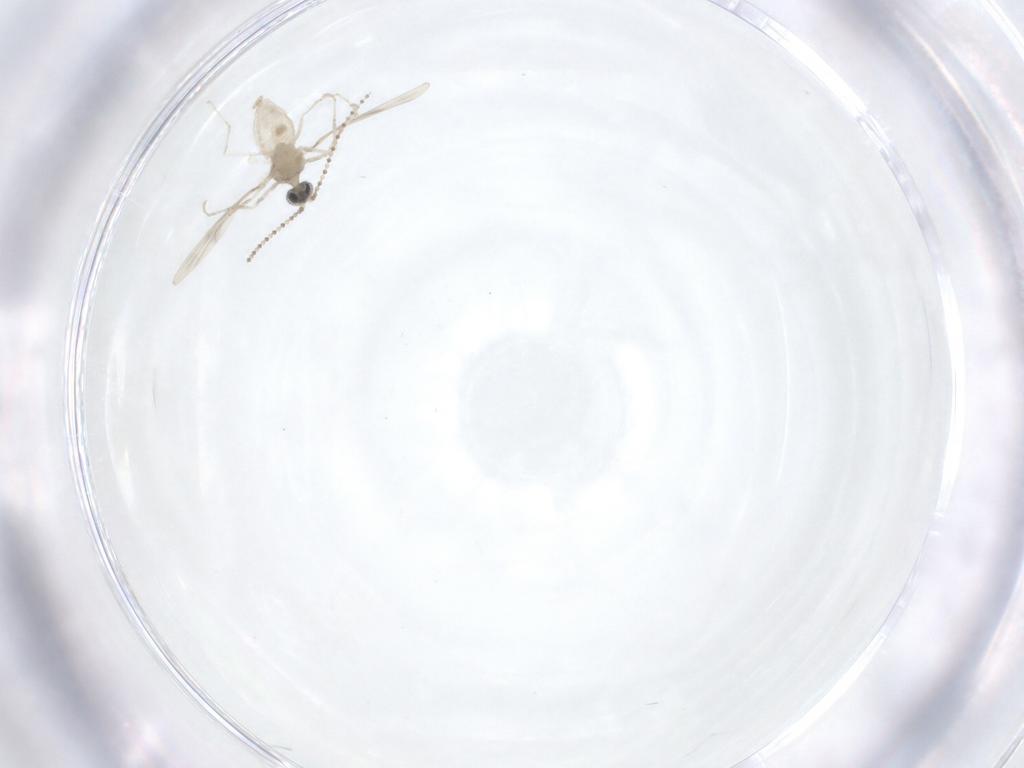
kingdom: Animalia
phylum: Arthropoda
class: Insecta
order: Diptera
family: Cecidomyiidae
